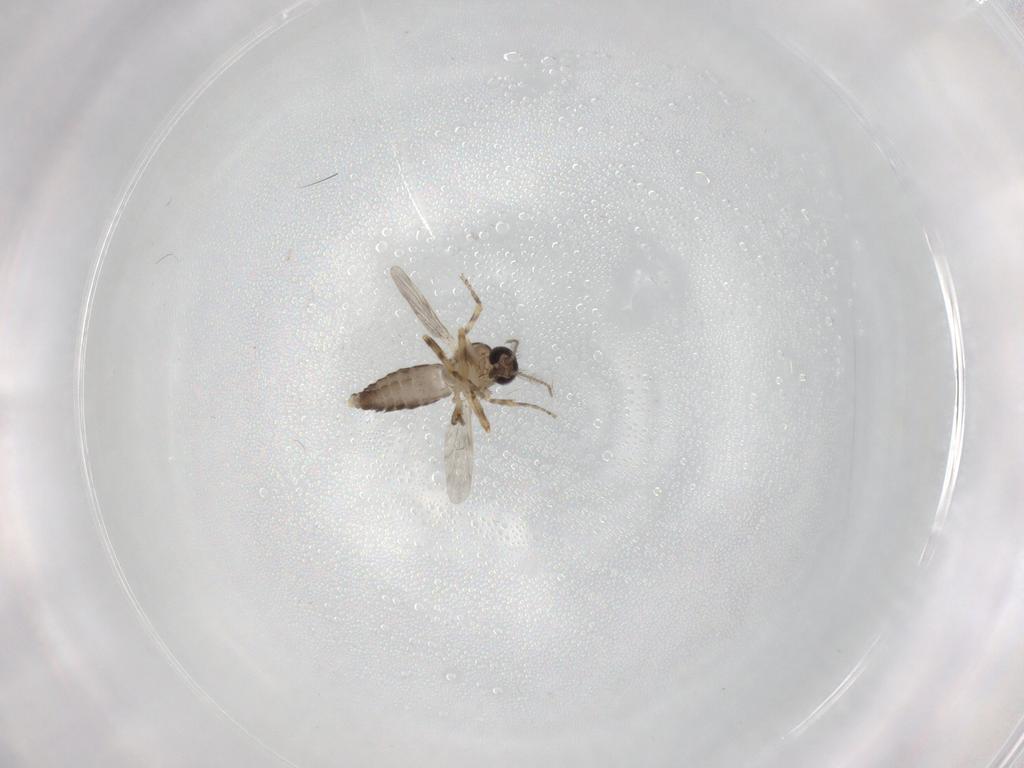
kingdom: Animalia
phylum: Arthropoda
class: Insecta
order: Diptera
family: Ceratopogonidae
